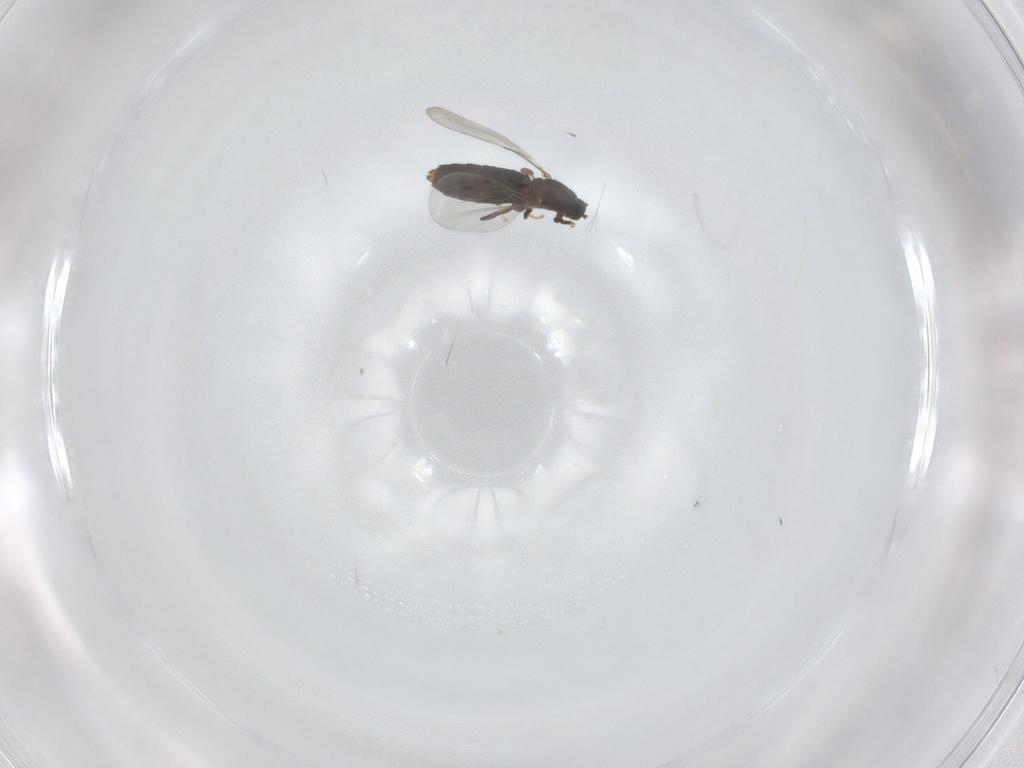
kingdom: Animalia
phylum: Arthropoda
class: Insecta
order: Diptera
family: Scatopsidae
